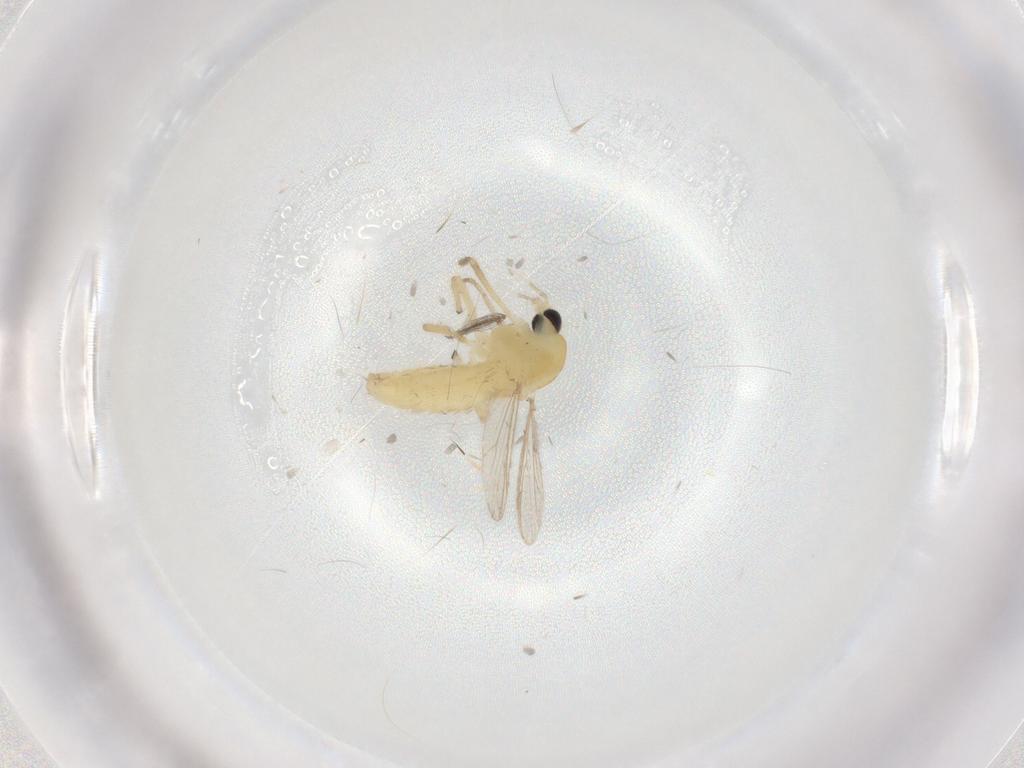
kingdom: Animalia
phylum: Arthropoda
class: Insecta
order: Diptera
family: Chironomidae
